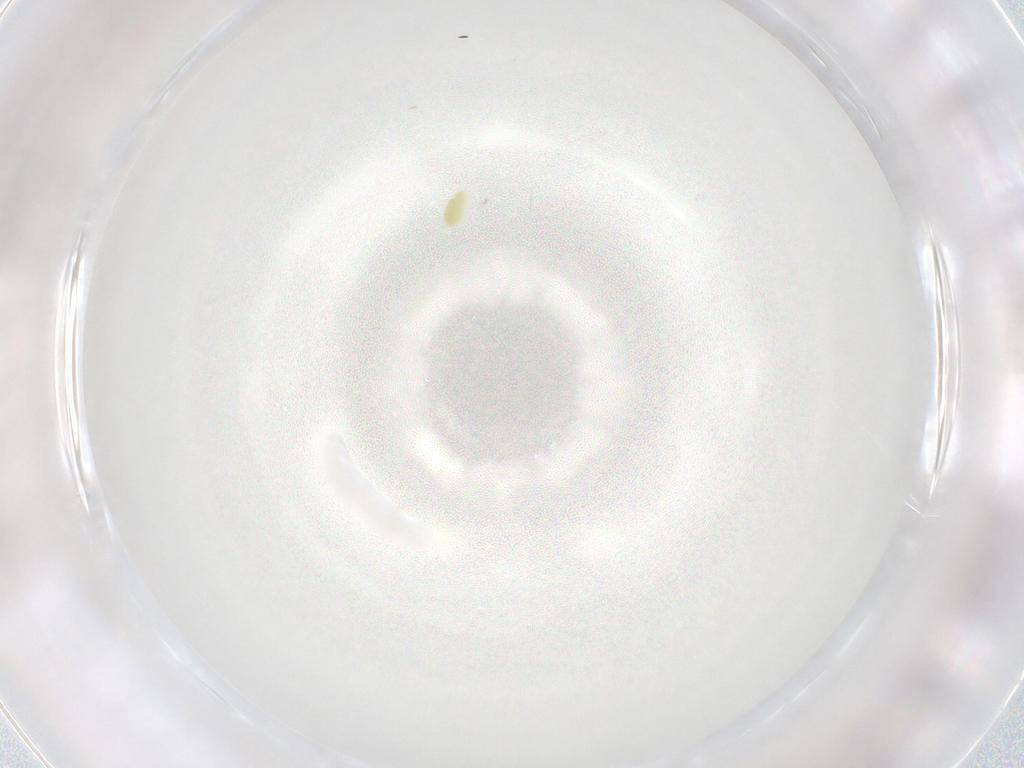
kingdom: Animalia
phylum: Arthropoda
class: Arachnida
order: Trombidiformes
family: Eupodidae
